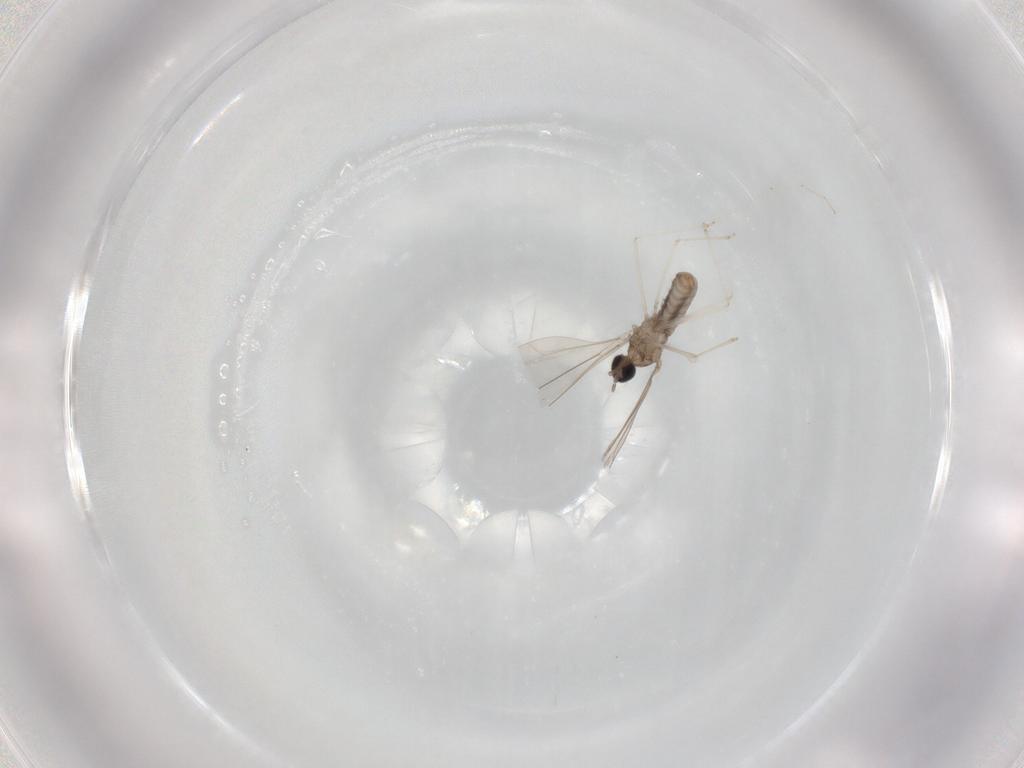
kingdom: Animalia
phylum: Arthropoda
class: Insecta
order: Diptera
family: Cecidomyiidae
